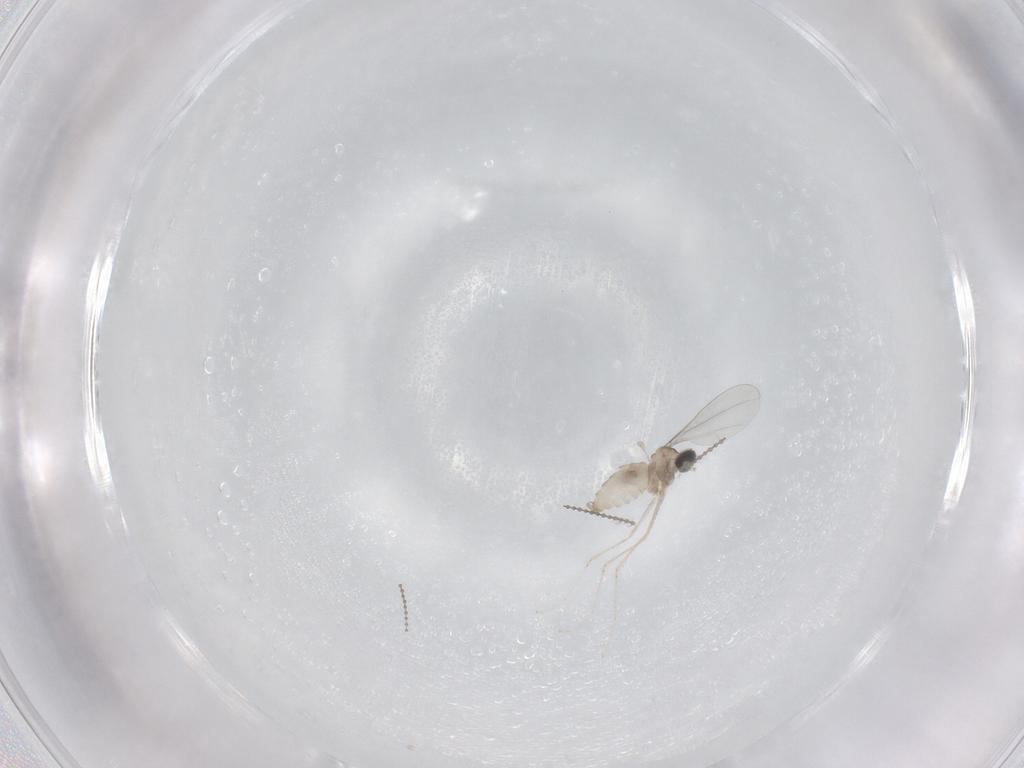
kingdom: Animalia
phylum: Arthropoda
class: Insecta
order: Diptera
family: Cecidomyiidae
